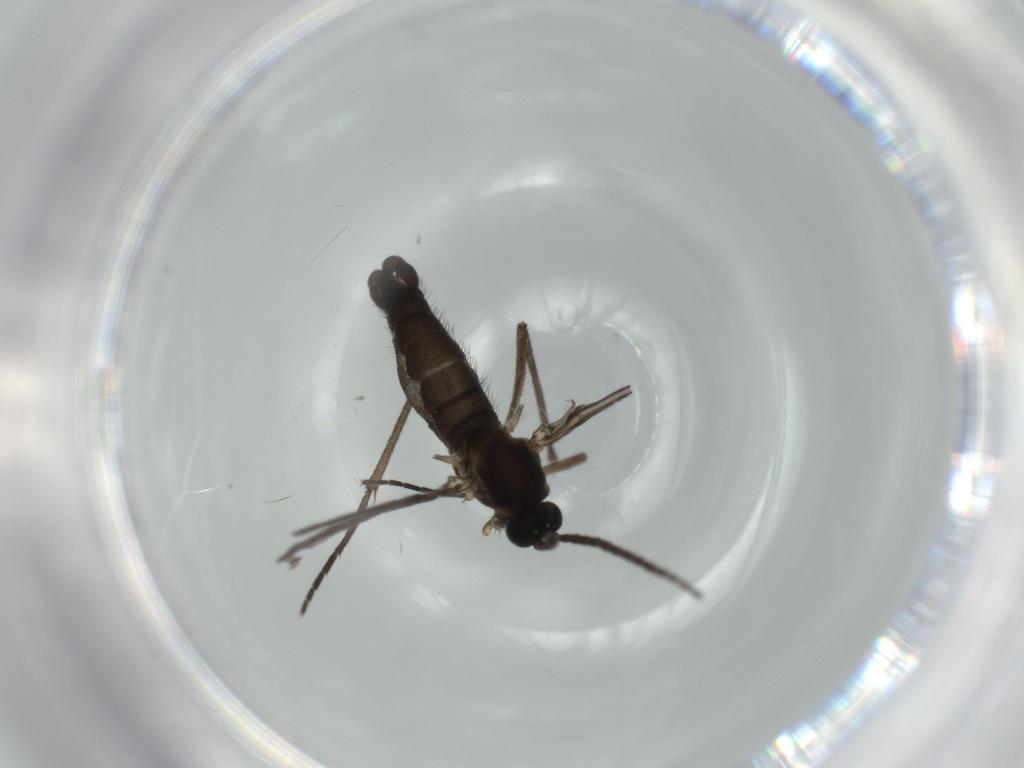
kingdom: Animalia
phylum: Arthropoda
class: Insecta
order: Diptera
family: Sciaridae
